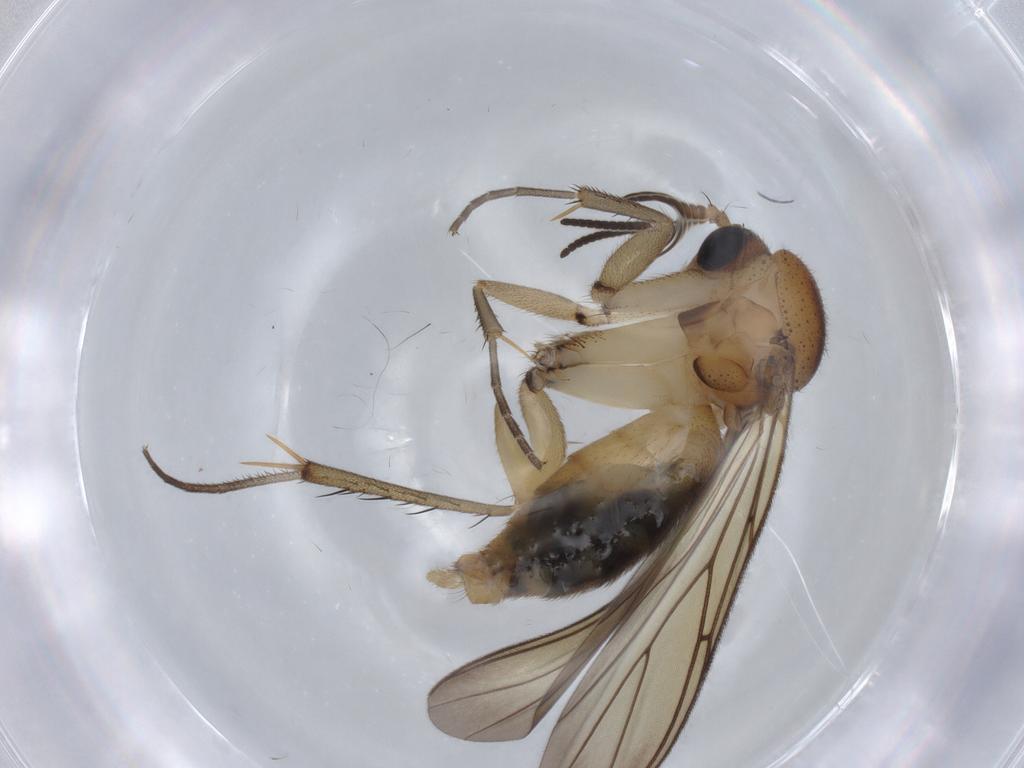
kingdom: Animalia
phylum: Arthropoda
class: Insecta
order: Diptera
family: Mycetophilidae
